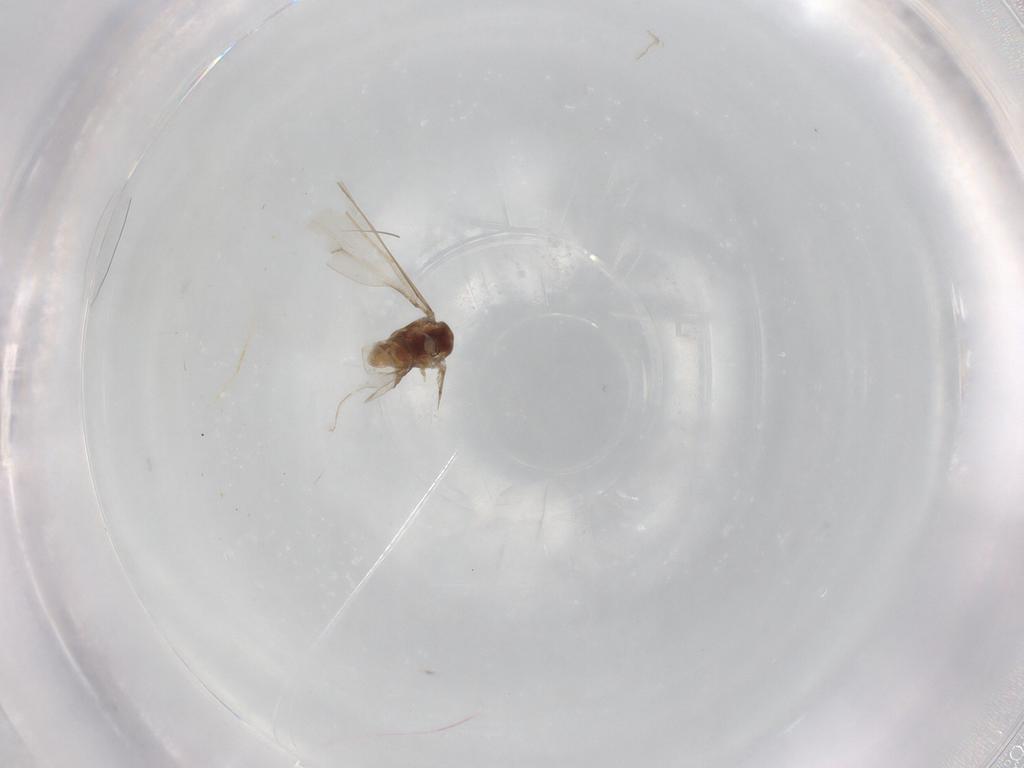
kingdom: Animalia
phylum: Arthropoda
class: Insecta
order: Diptera
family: Cecidomyiidae
